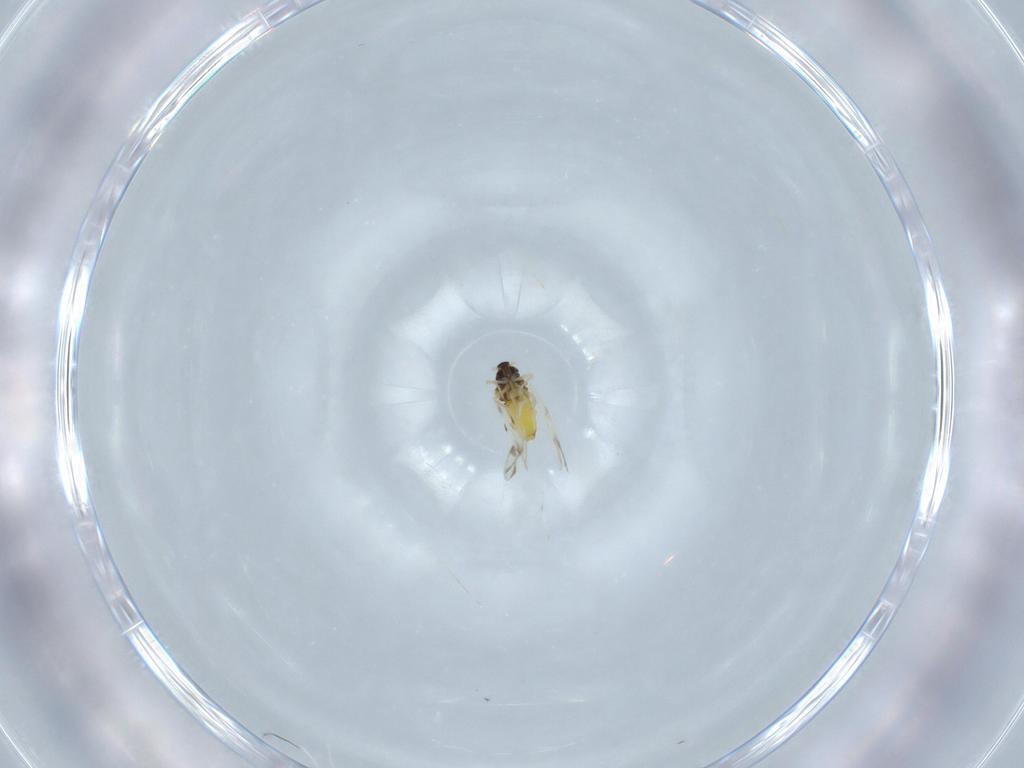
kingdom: Animalia
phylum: Arthropoda
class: Insecta
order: Hemiptera
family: Aleyrodidae
